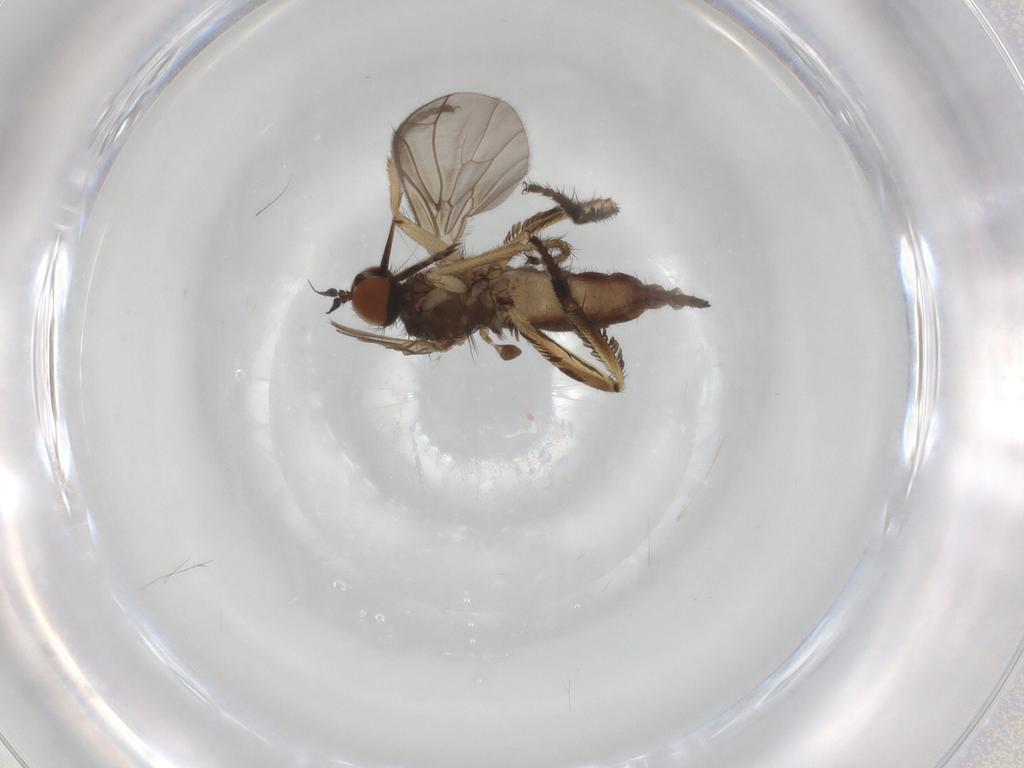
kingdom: Animalia
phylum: Arthropoda
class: Insecta
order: Diptera
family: Empididae
